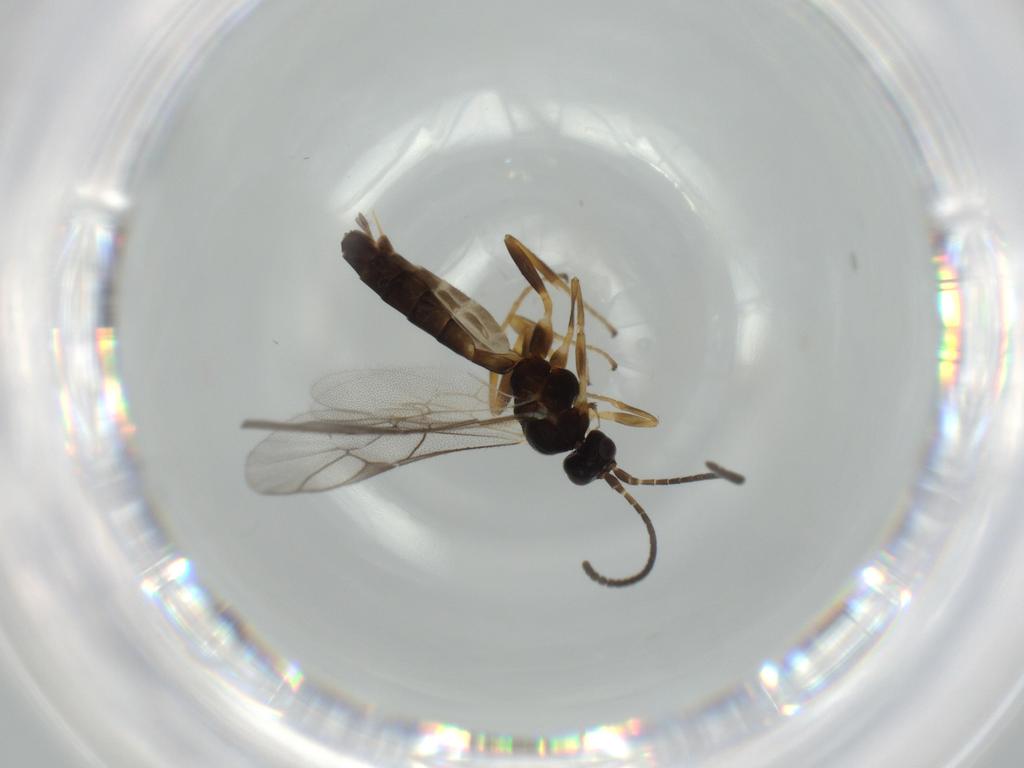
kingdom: Animalia
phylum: Arthropoda
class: Insecta
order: Hymenoptera
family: Ichneumonidae
